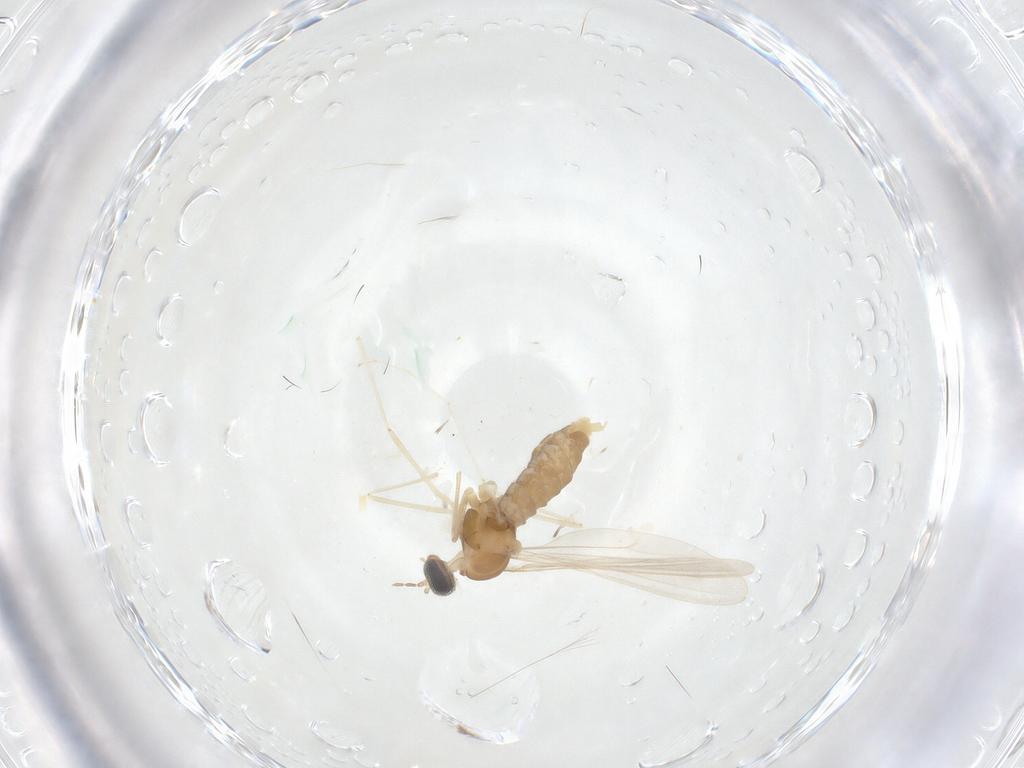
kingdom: Animalia
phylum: Arthropoda
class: Insecta
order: Diptera
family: Cecidomyiidae
